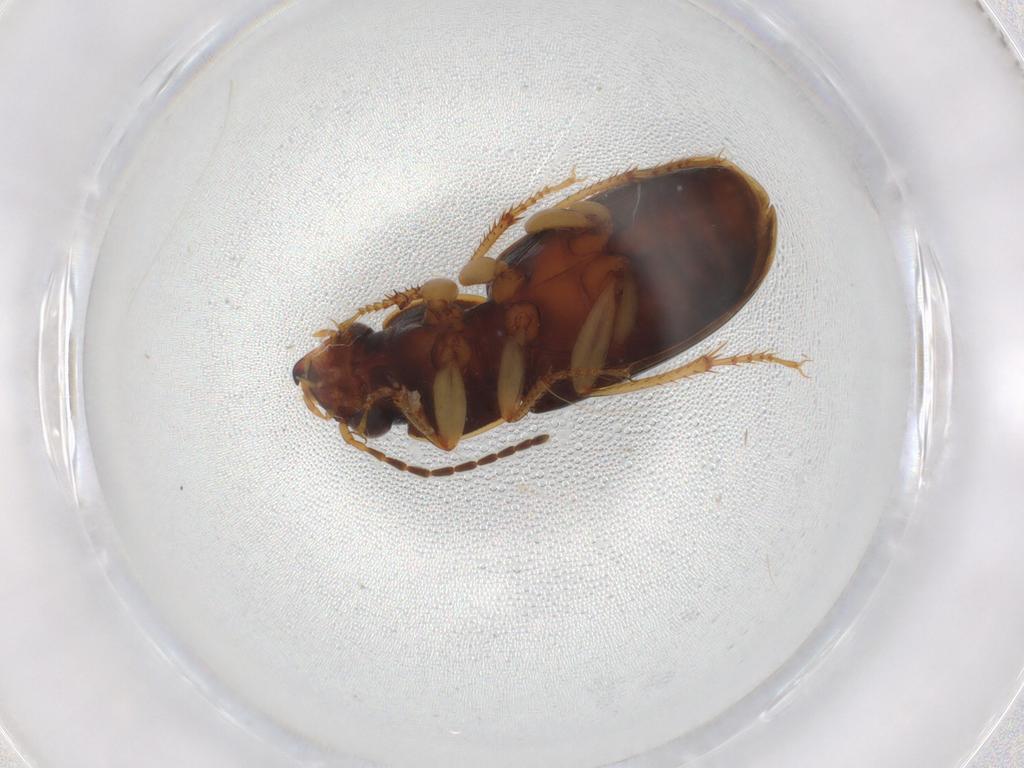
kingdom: Animalia
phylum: Arthropoda
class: Insecta
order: Coleoptera
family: Carabidae
